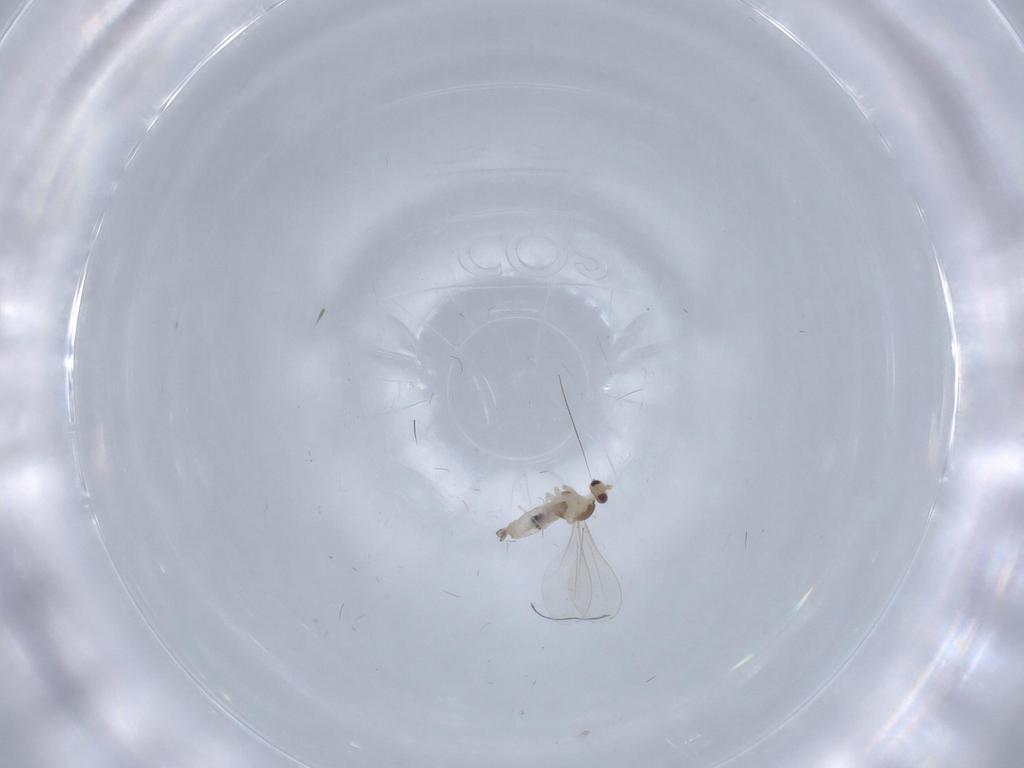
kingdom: Animalia
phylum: Arthropoda
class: Insecta
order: Diptera
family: Cecidomyiidae
